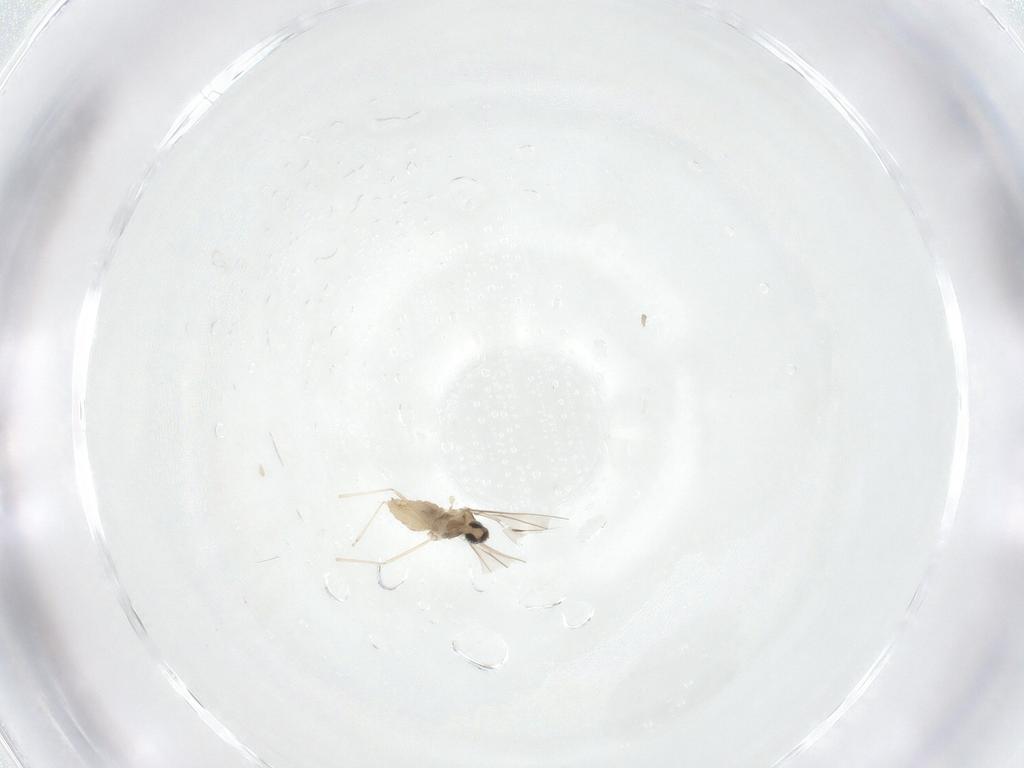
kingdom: Animalia
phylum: Arthropoda
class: Insecta
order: Diptera
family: Cecidomyiidae
